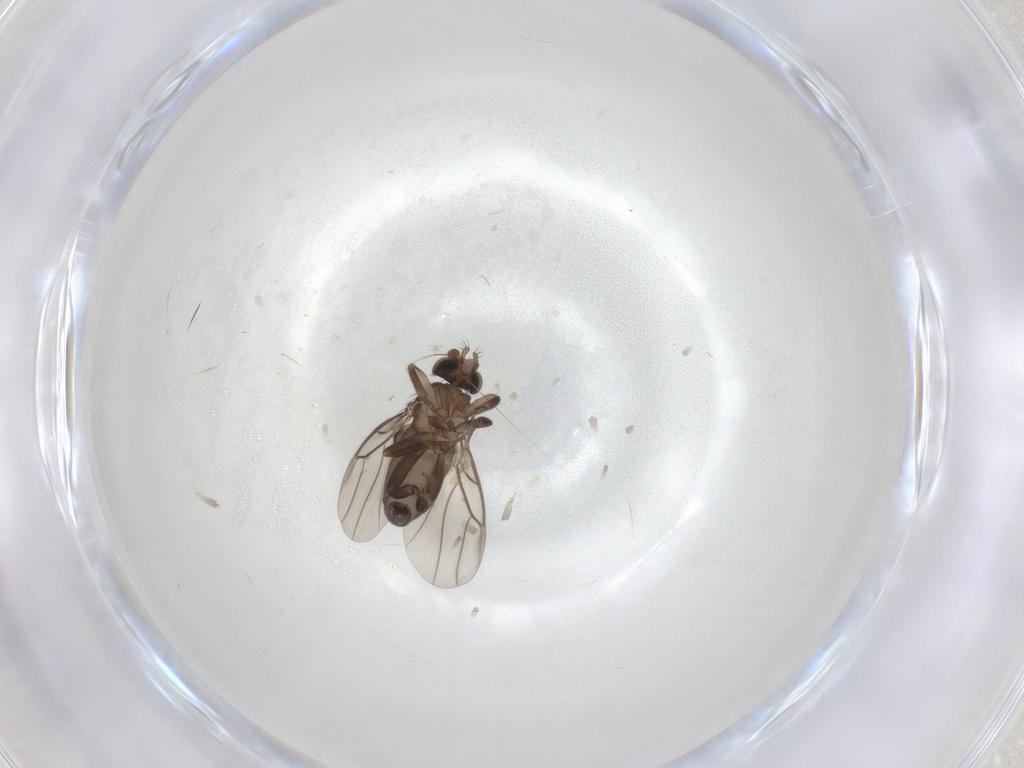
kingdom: Animalia
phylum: Arthropoda
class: Insecta
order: Diptera
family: Phoridae
